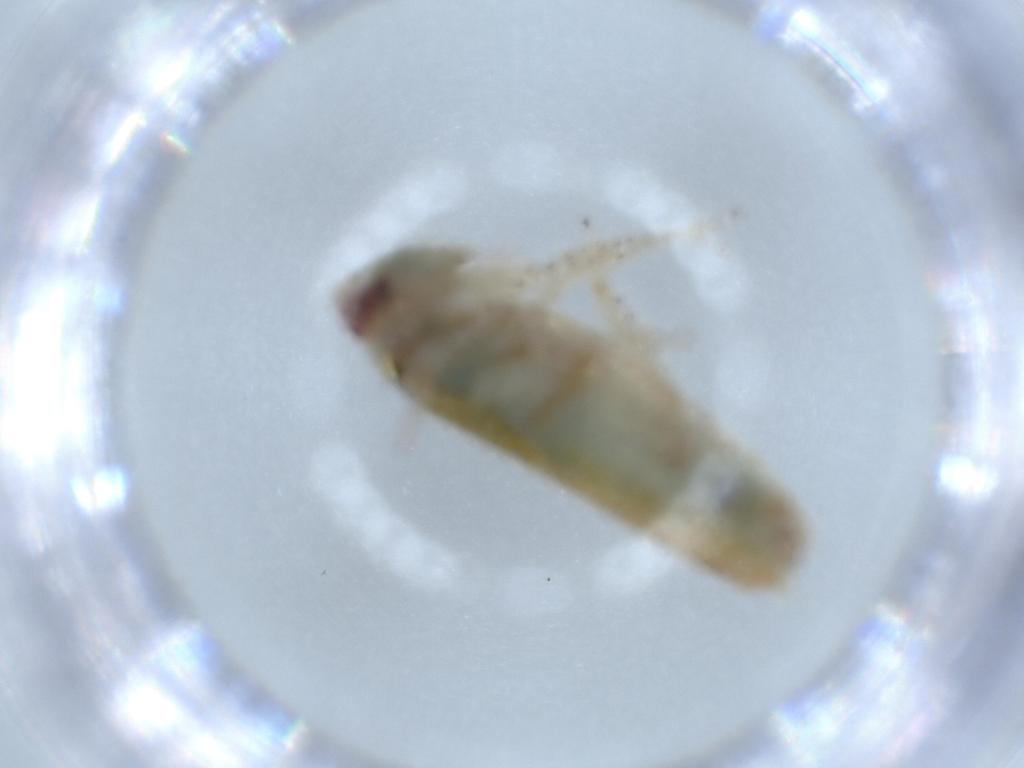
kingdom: Animalia
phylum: Arthropoda
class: Insecta
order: Hemiptera
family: Cicadellidae
